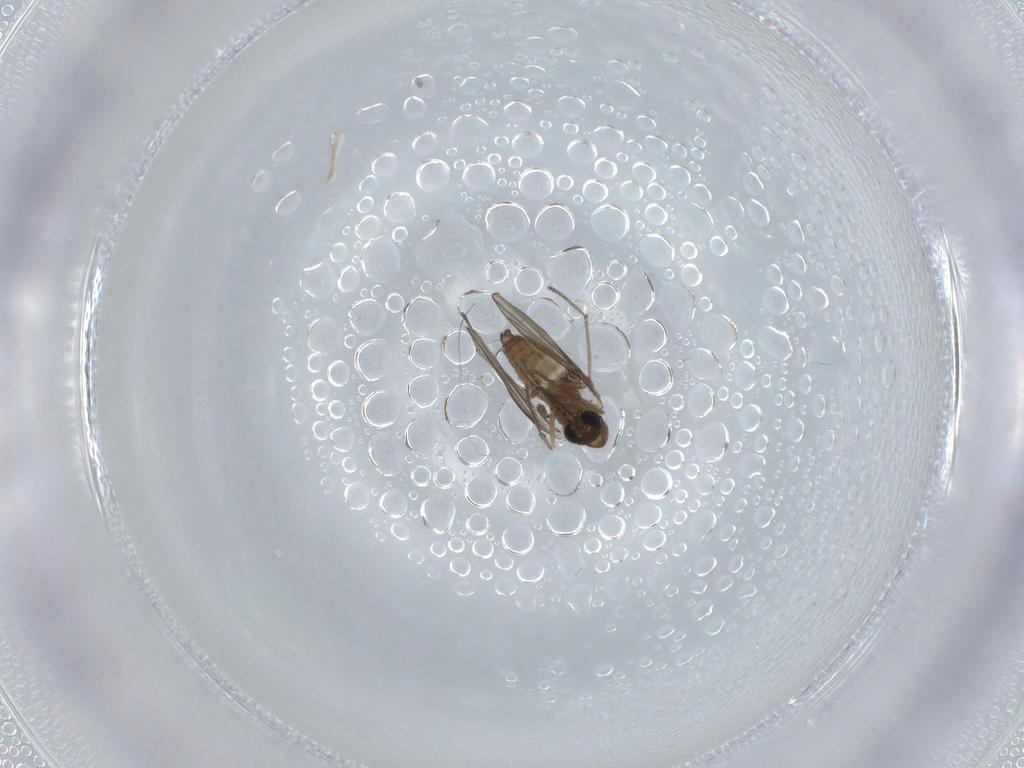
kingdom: Animalia
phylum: Arthropoda
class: Insecta
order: Diptera
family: Psychodidae
